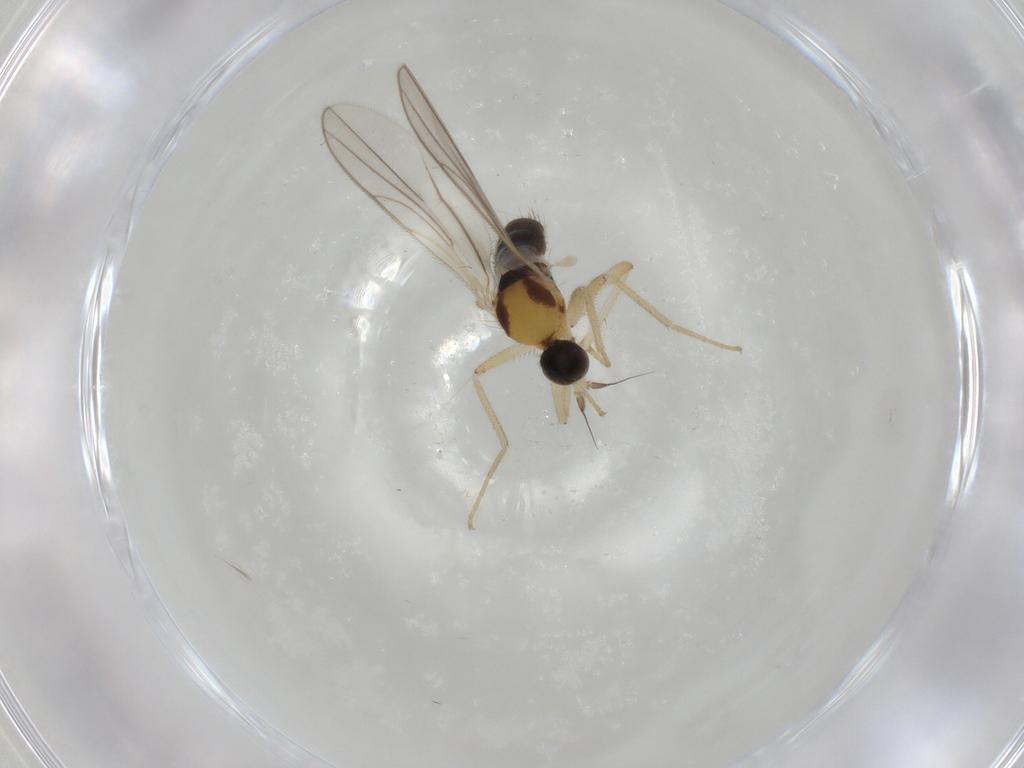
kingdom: Animalia
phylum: Arthropoda
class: Insecta
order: Diptera
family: Hybotidae
